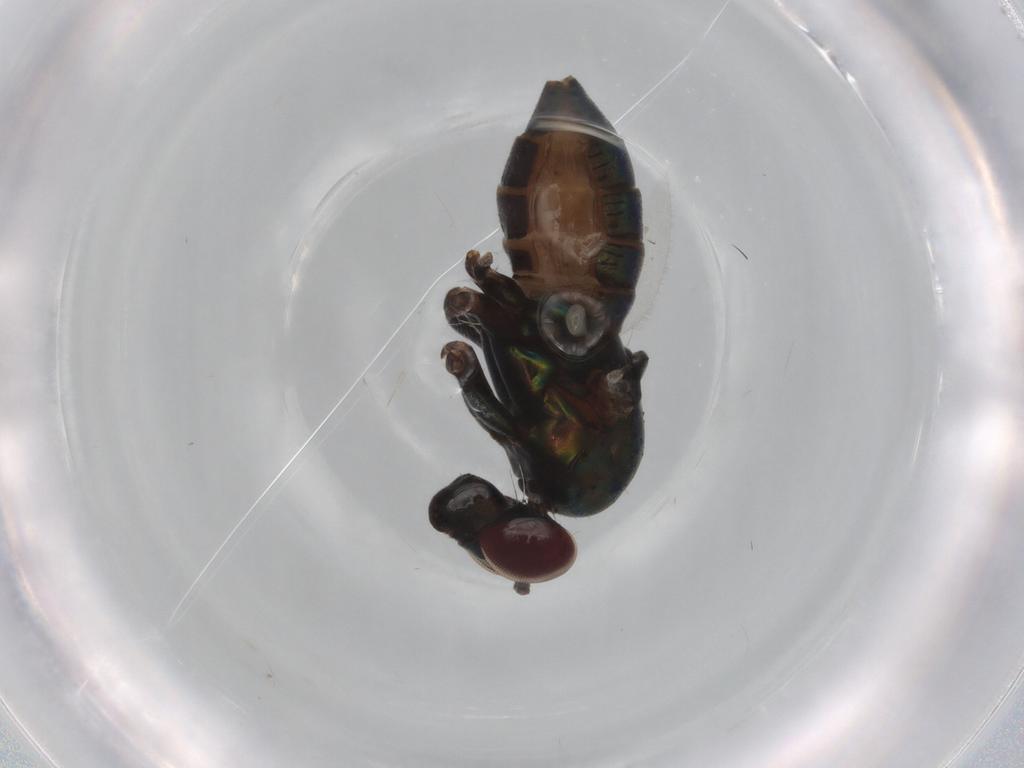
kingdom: Animalia
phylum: Arthropoda
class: Insecta
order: Diptera
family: Dolichopodidae
